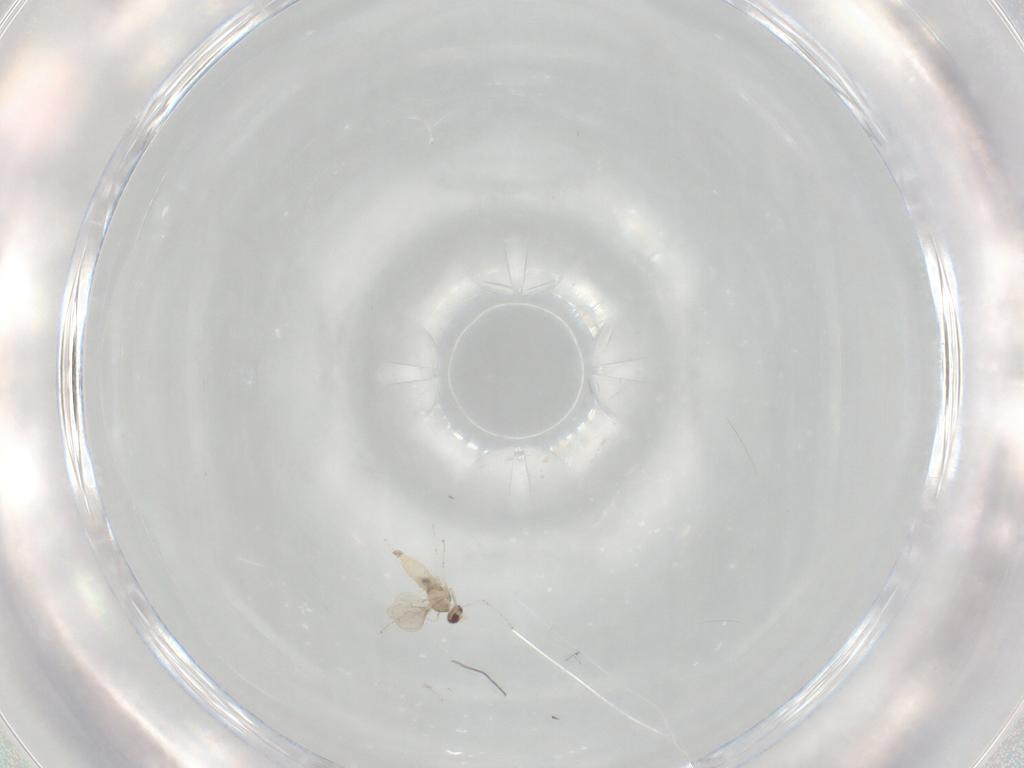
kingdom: Animalia
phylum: Arthropoda
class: Insecta
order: Diptera
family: Cecidomyiidae
